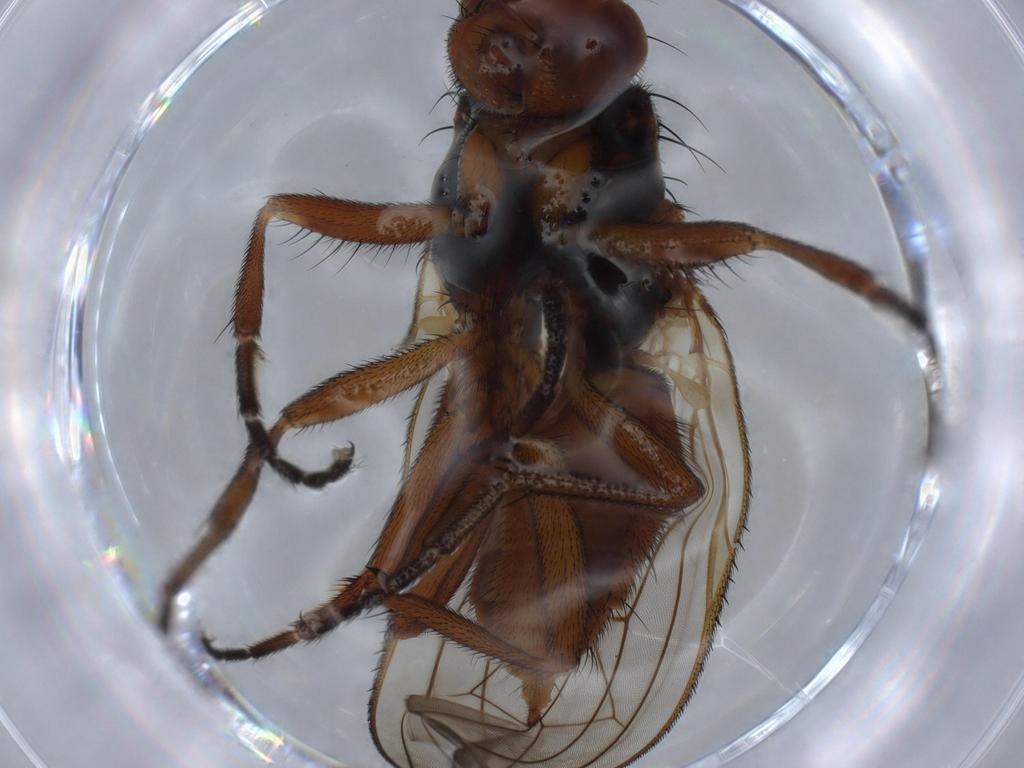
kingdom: Animalia
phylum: Arthropoda
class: Insecta
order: Diptera
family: Heleomyzidae
